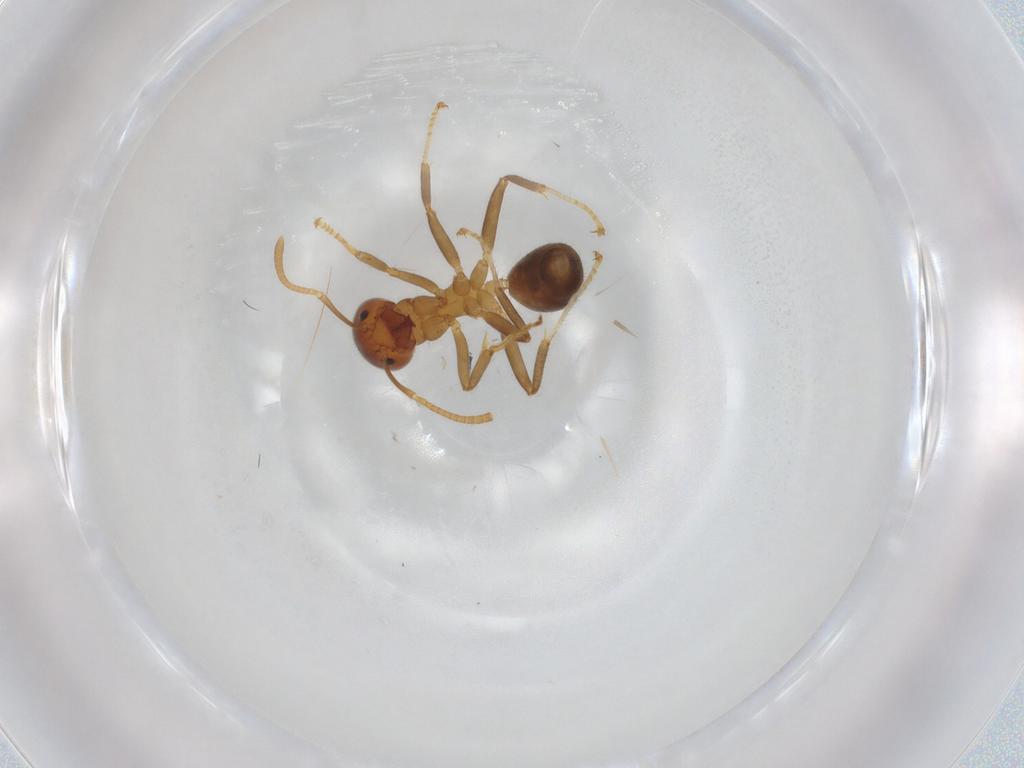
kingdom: Animalia
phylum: Arthropoda
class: Insecta
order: Hymenoptera
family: Formicidae
